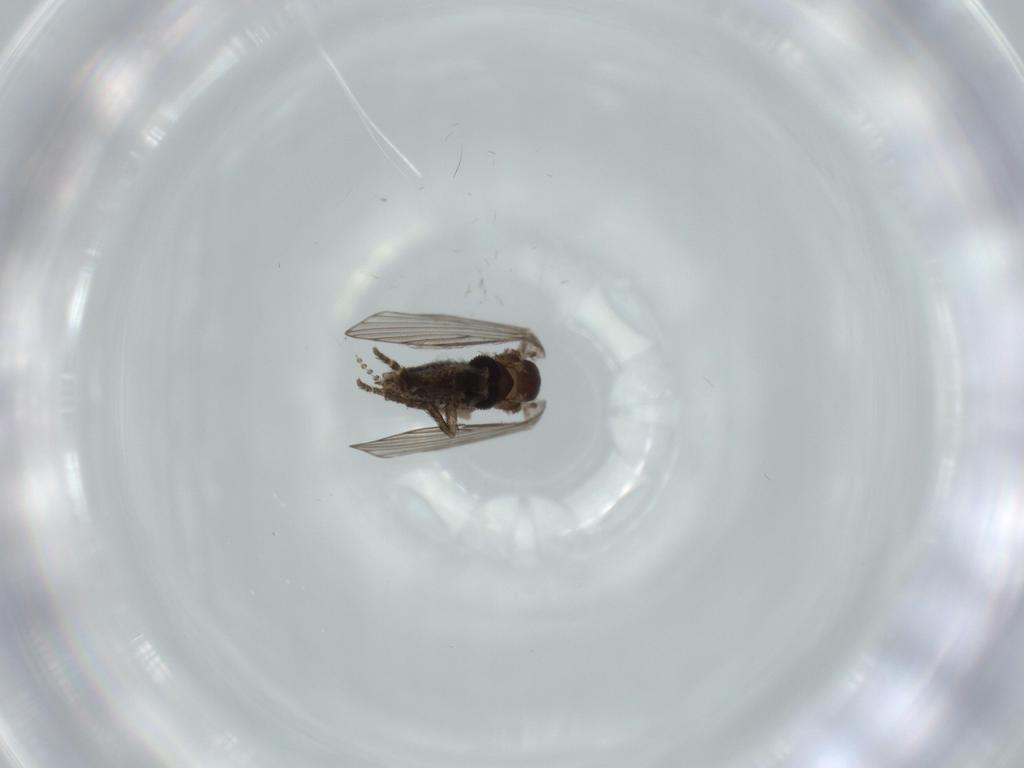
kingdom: Animalia
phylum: Arthropoda
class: Insecta
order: Diptera
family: Psychodidae
